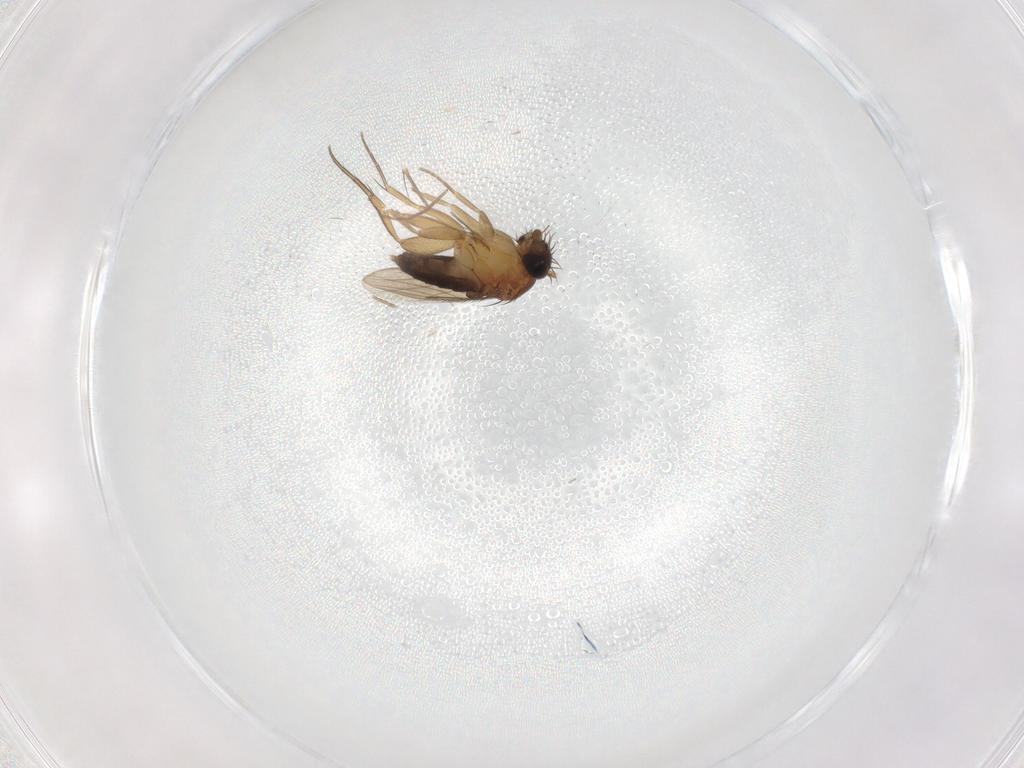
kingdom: Animalia
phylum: Arthropoda
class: Insecta
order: Diptera
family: Phoridae
